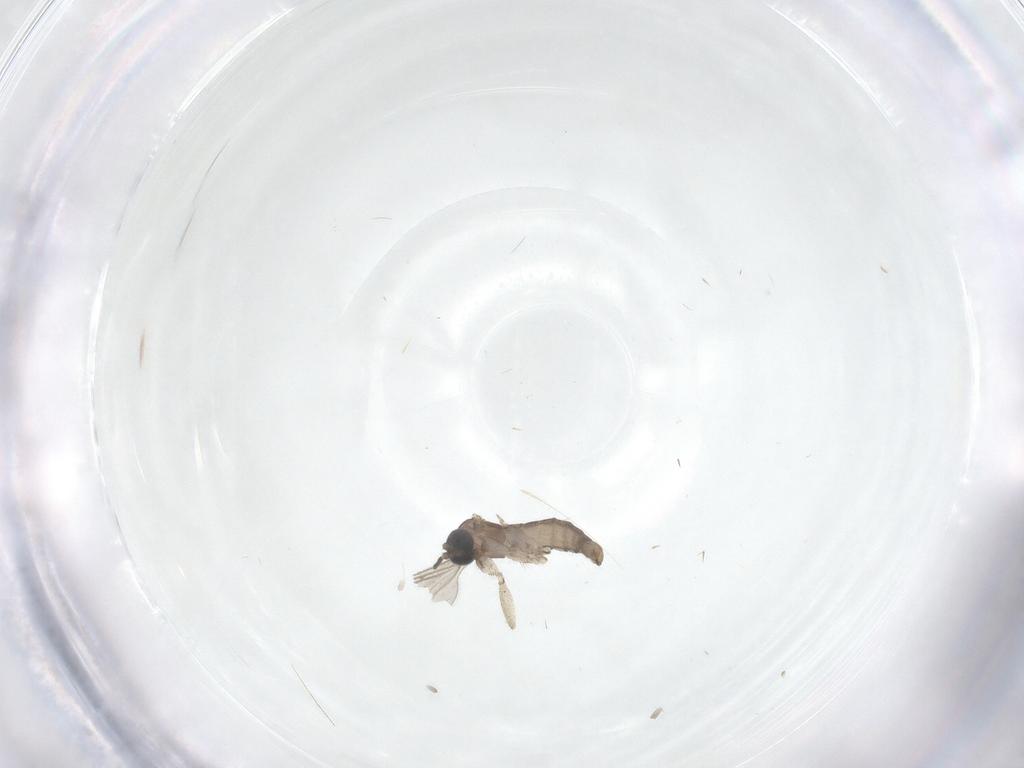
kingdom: Animalia
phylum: Arthropoda
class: Insecta
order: Diptera
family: Sciaridae
